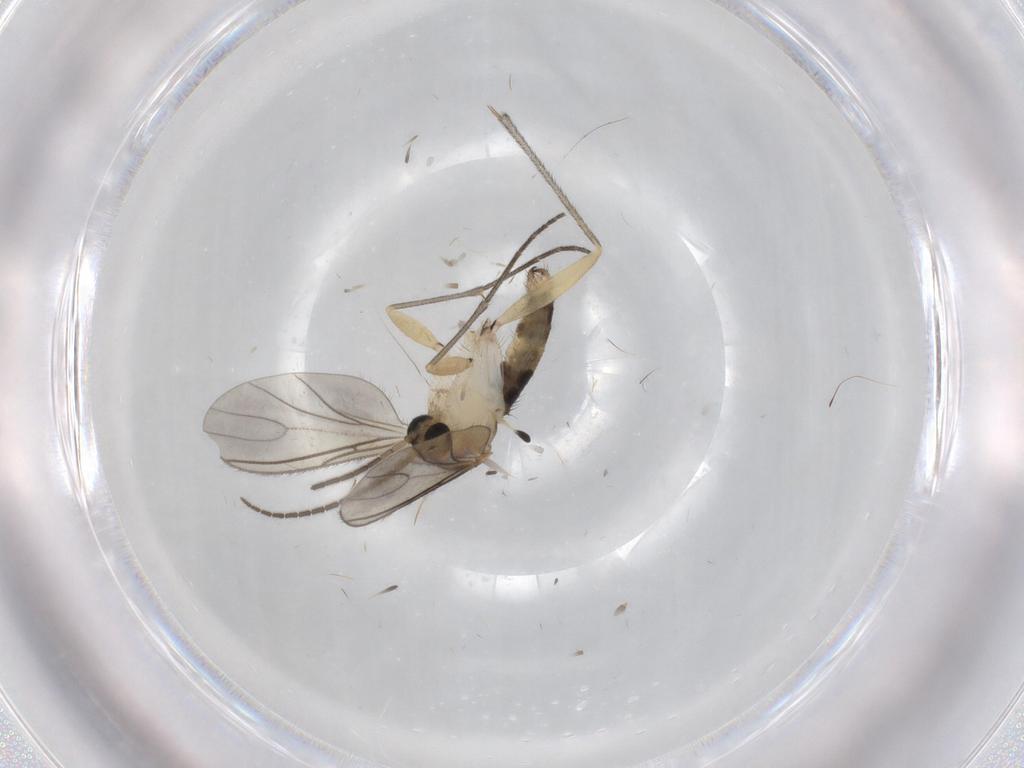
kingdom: Animalia
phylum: Arthropoda
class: Insecta
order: Diptera
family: Sciaridae
